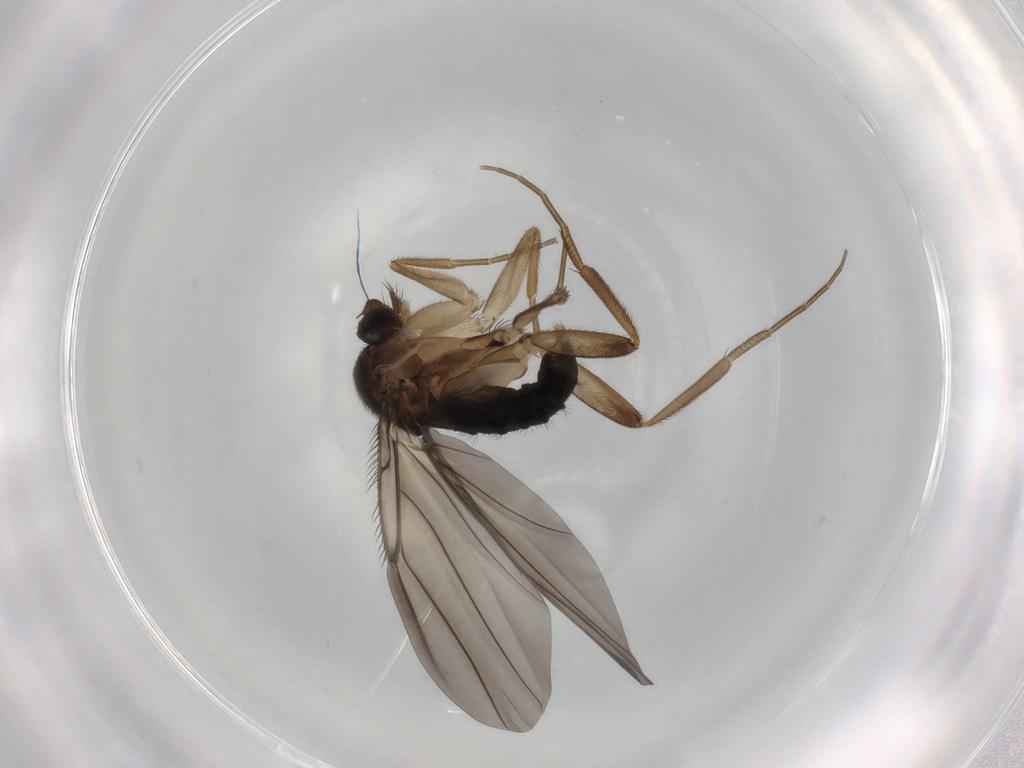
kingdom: Animalia
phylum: Arthropoda
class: Insecta
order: Diptera
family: Phoridae
